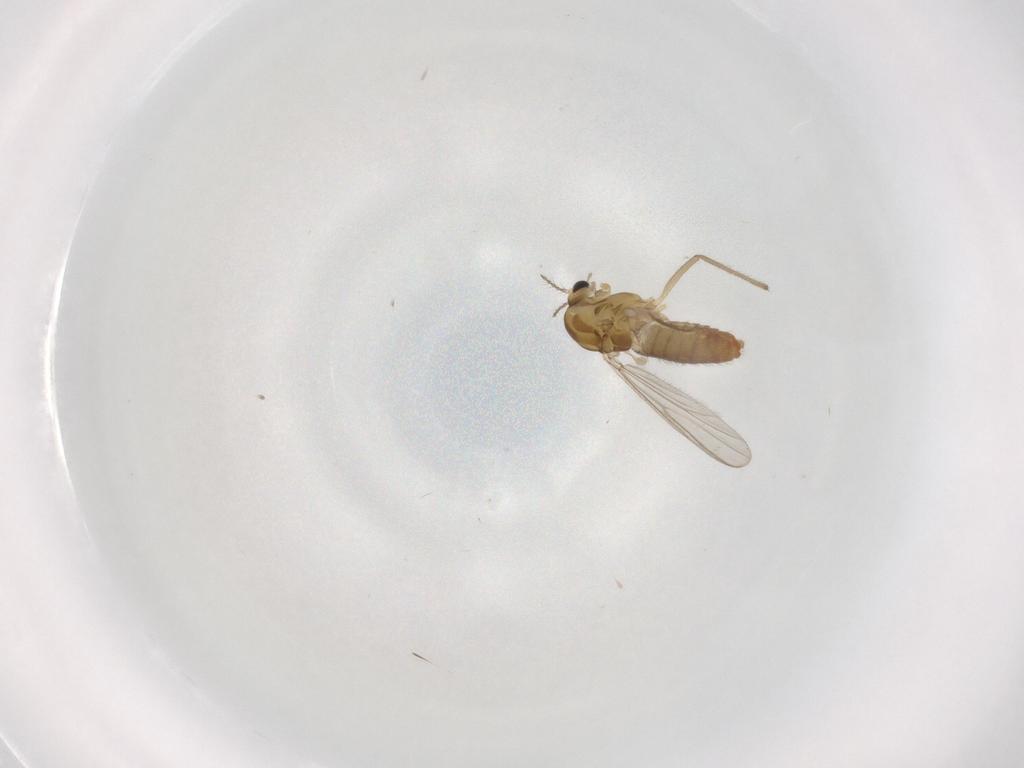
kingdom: Animalia
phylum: Arthropoda
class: Insecta
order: Diptera
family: Chironomidae
